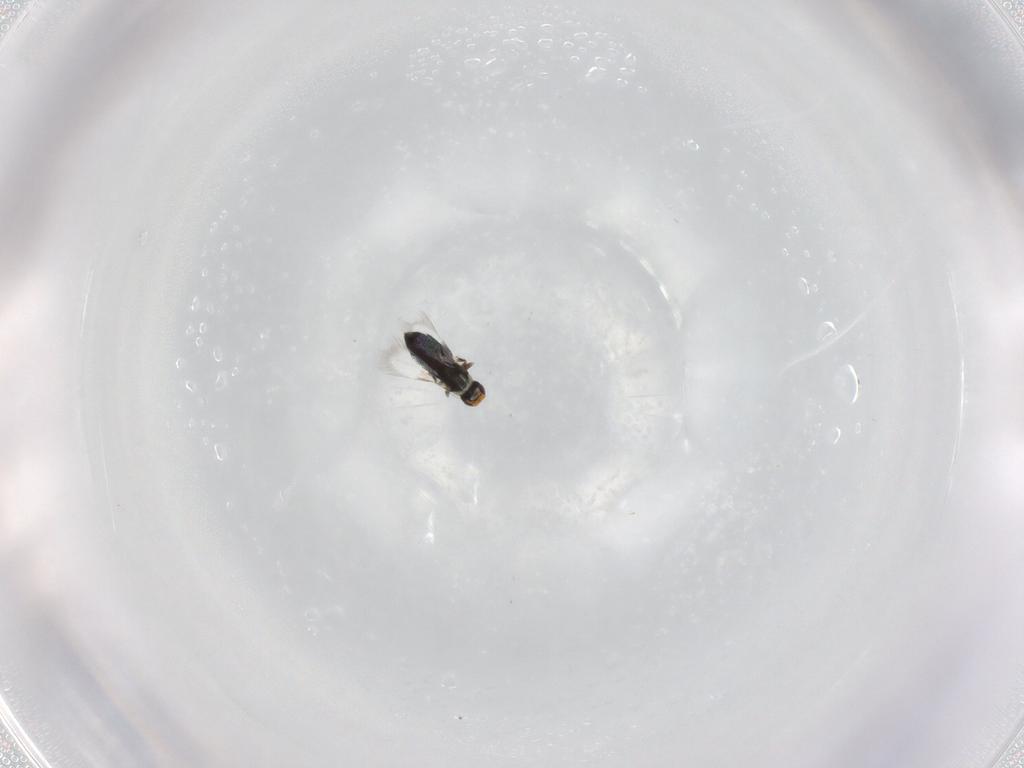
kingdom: Animalia
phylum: Arthropoda
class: Insecta
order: Hymenoptera
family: Signiphoridae
